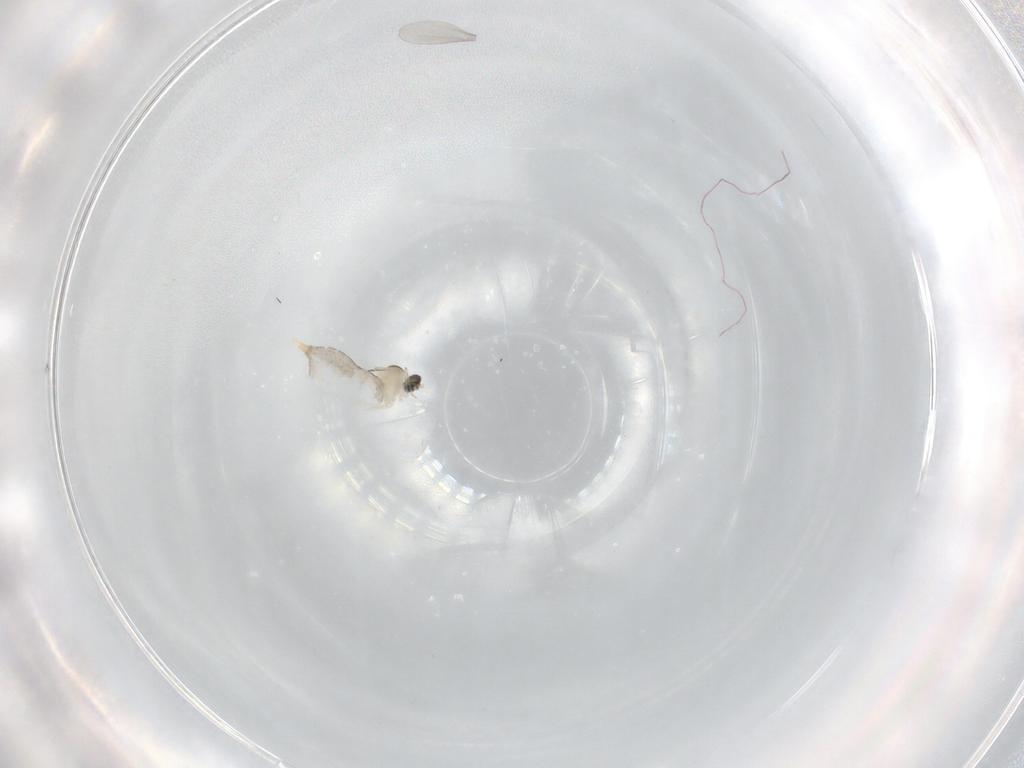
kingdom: Animalia
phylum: Arthropoda
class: Insecta
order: Diptera
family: Cecidomyiidae
